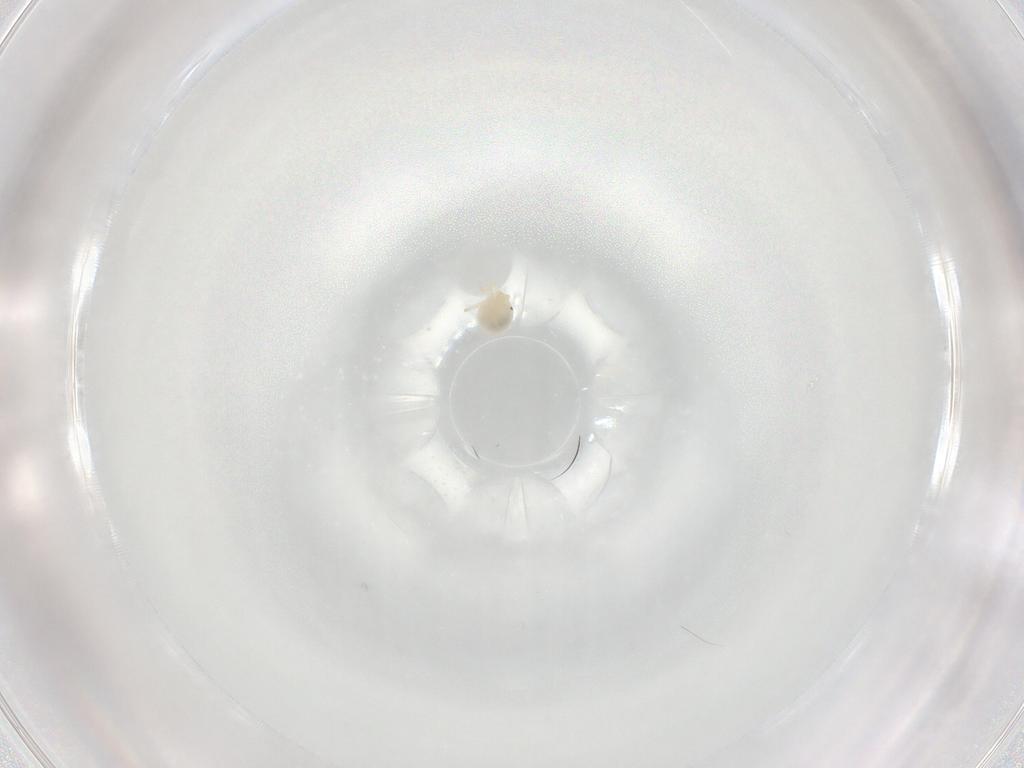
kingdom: Animalia
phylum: Arthropoda
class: Arachnida
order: Trombidiformes
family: Sperchontidae
